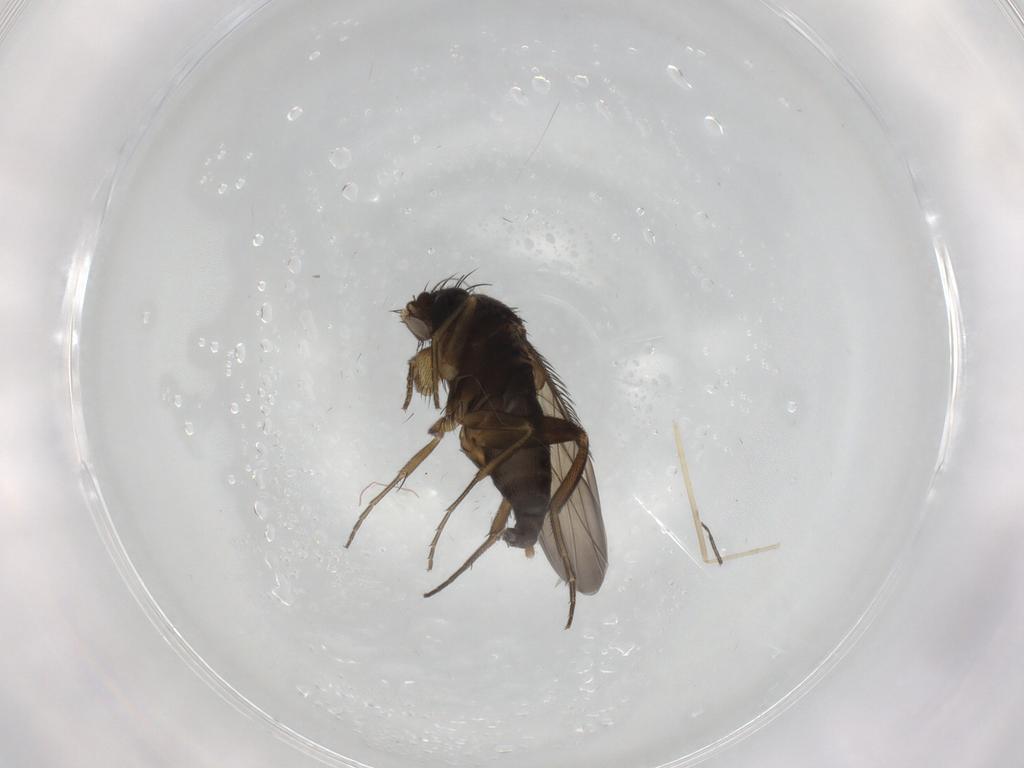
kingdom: Animalia
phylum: Arthropoda
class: Insecta
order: Diptera
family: Phoridae
